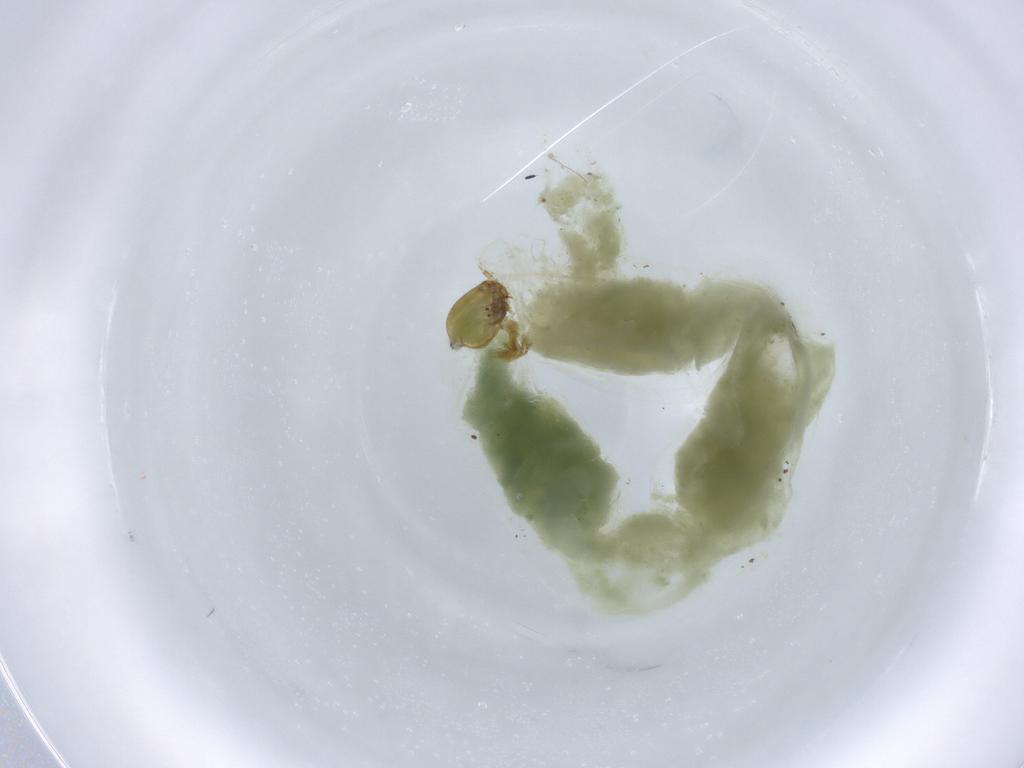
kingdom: Animalia
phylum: Arthropoda
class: Insecta
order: Diptera
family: Chironomidae
